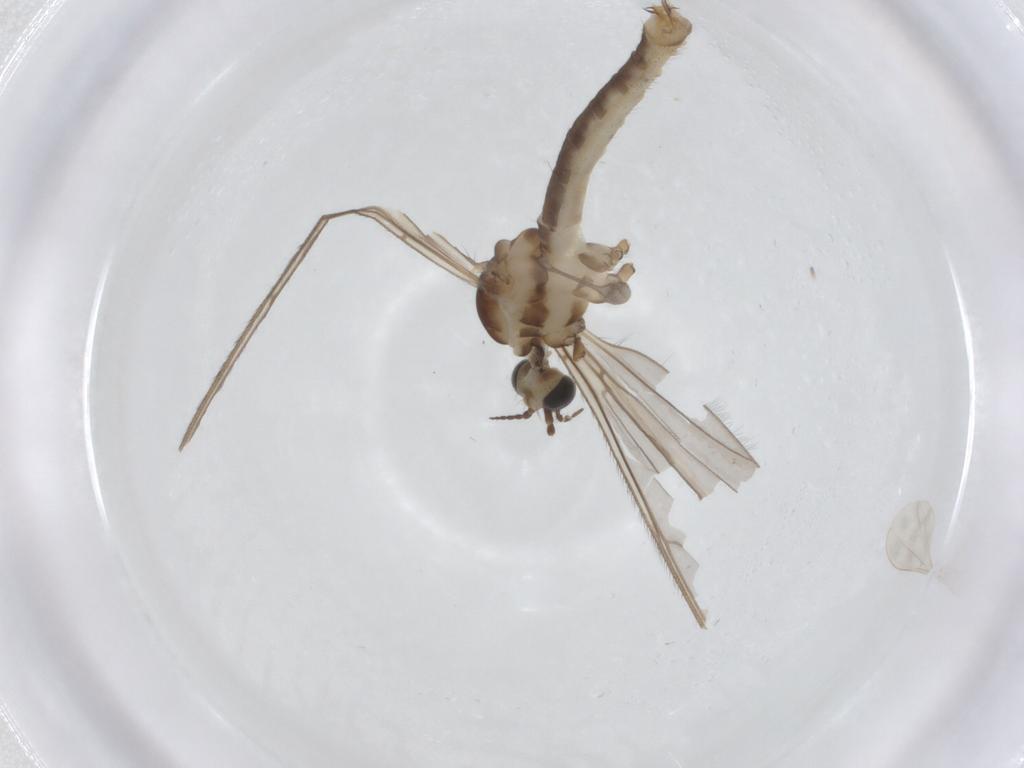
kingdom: Animalia
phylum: Arthropoda
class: Insecta
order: Diptera
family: Limoniidae
